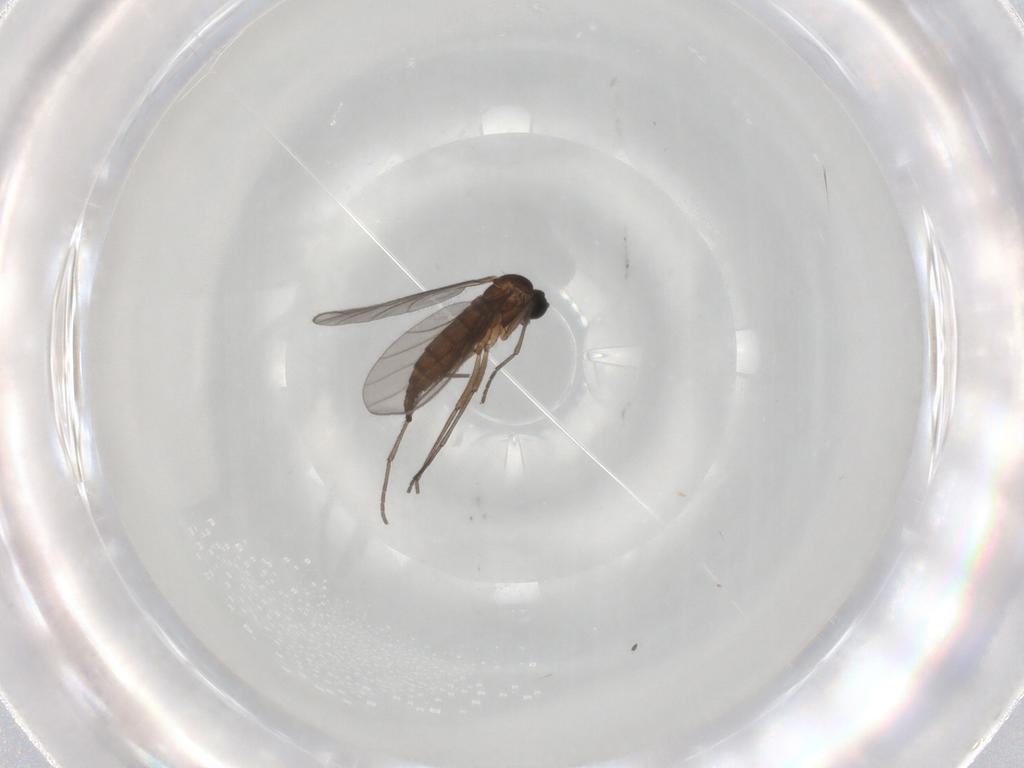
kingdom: Animalia
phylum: Arthropoda
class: Insecta
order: Diptera
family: Sciaridae
